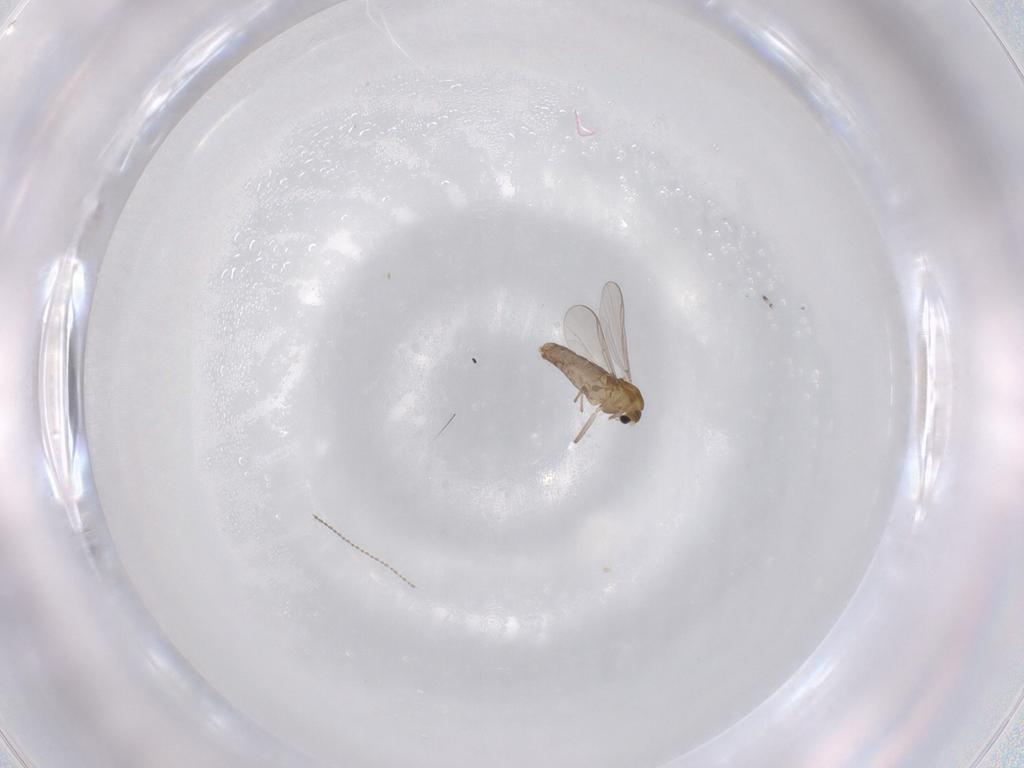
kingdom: Animalia
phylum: Arthropoda
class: Insecta
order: Diptera
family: Chironomidae
